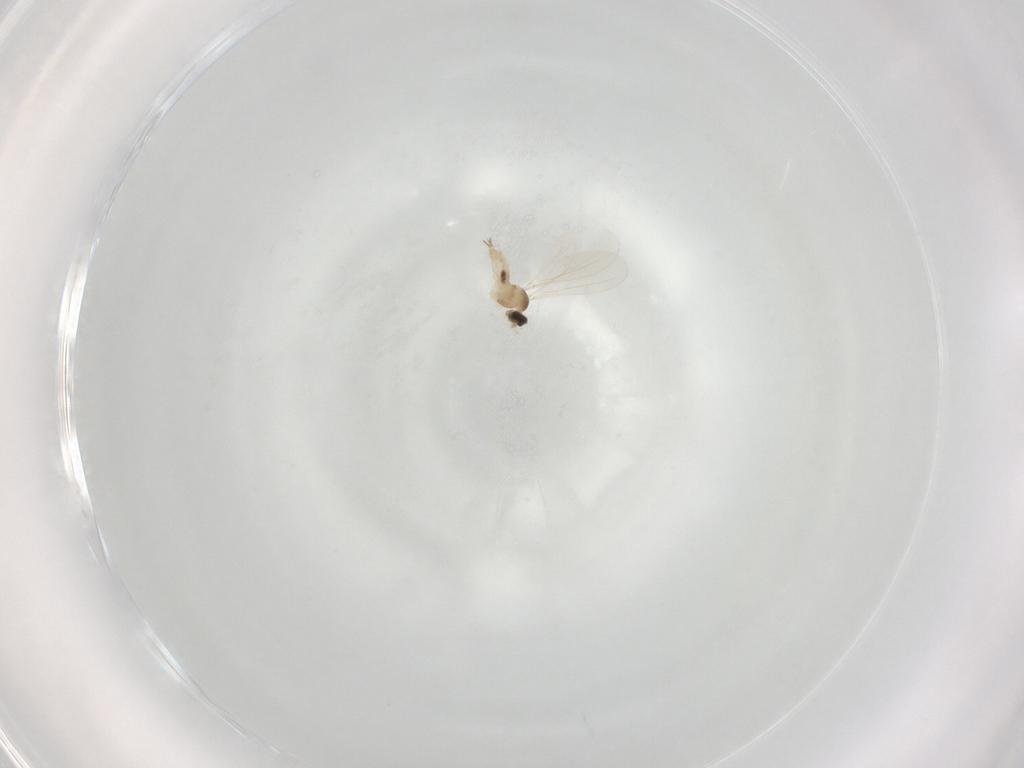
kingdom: Animalia
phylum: Arthropoda
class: Insecta
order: Diptera
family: Cecidomyiidae
